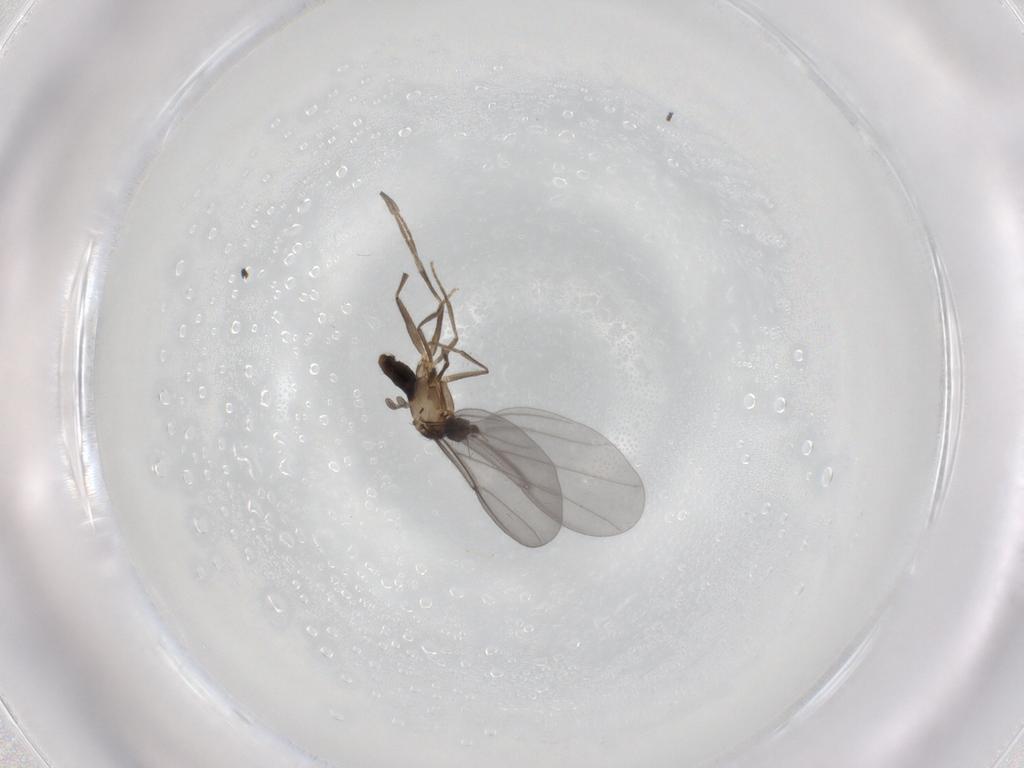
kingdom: Animalia
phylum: Arthropoda
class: Insecta
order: Diptera
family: Phoridae
